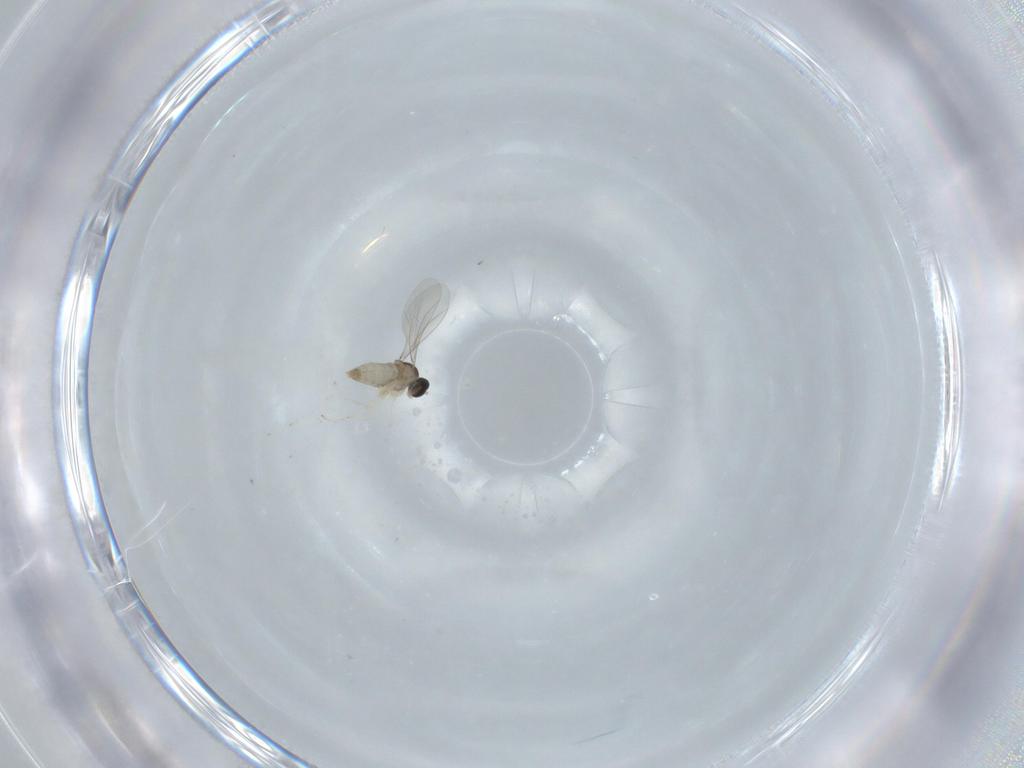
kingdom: Animalia
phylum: Arthropoda
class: Insecta
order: Diptera
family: Cecidomyiidae
